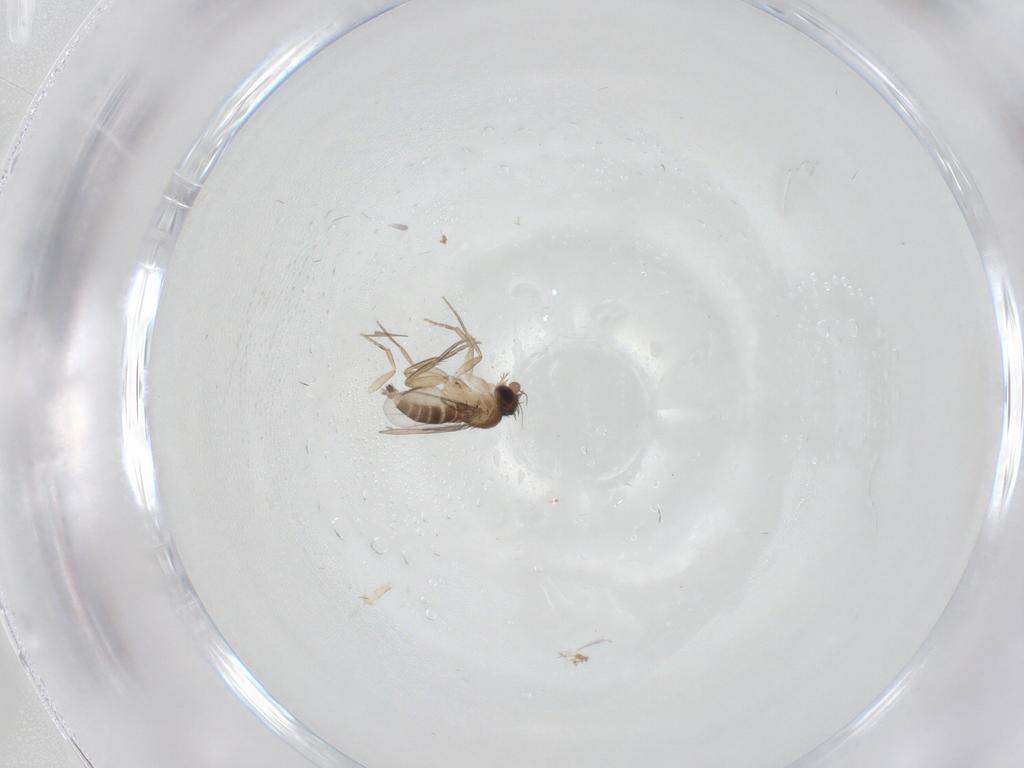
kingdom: Animalia
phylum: Arthropoda
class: Insecta
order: Diptera
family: Phoridae
